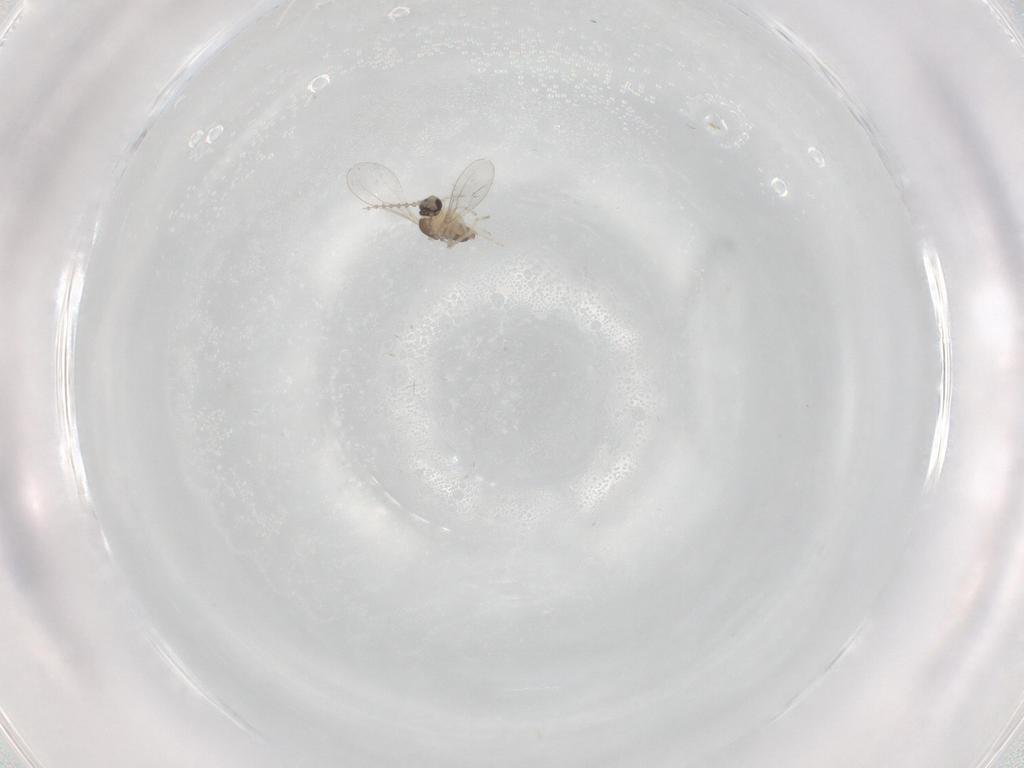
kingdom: Animalia
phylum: Arthropoda
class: Insecta
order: Diptera
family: Cecidomyiidae
